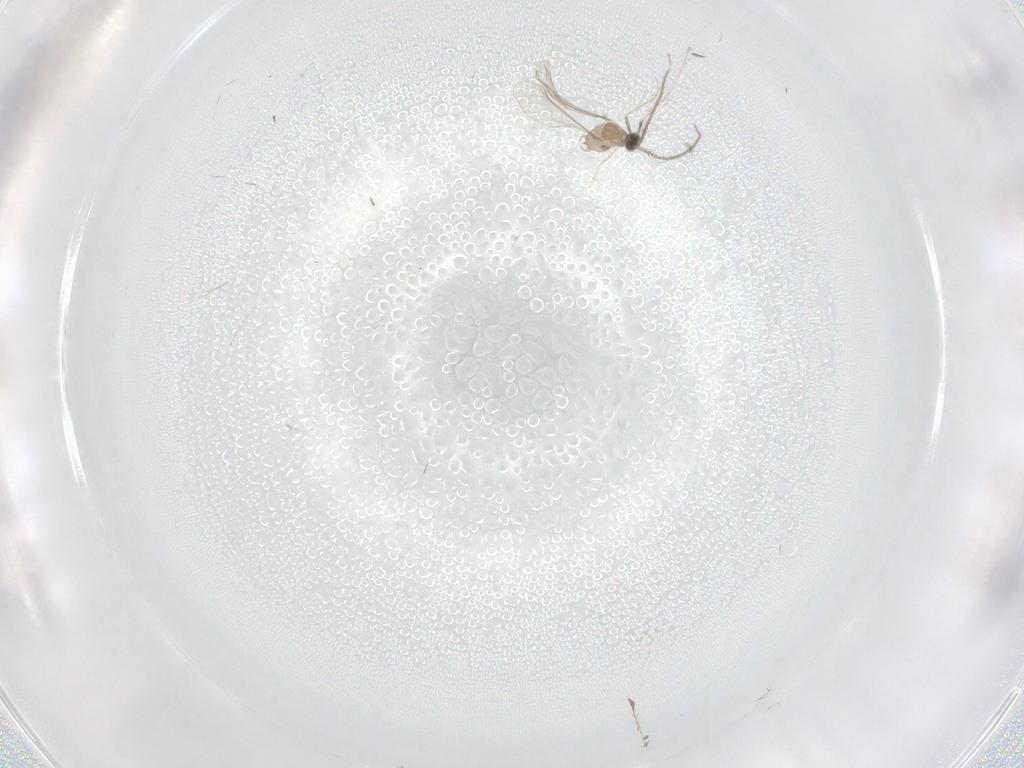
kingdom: Animalia
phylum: Arthropoda
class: Insecta
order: Diptera
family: Cecidomyiidae
